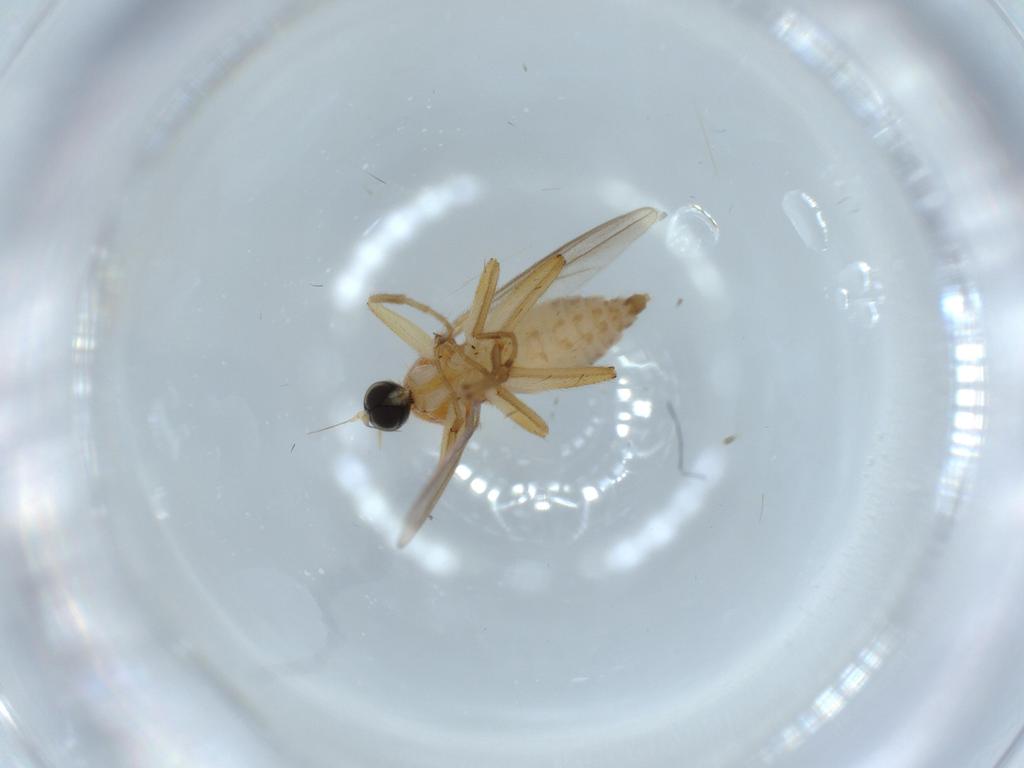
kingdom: Animalia
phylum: Arthropoda
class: Insecta
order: Diptera
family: Hybotidae
